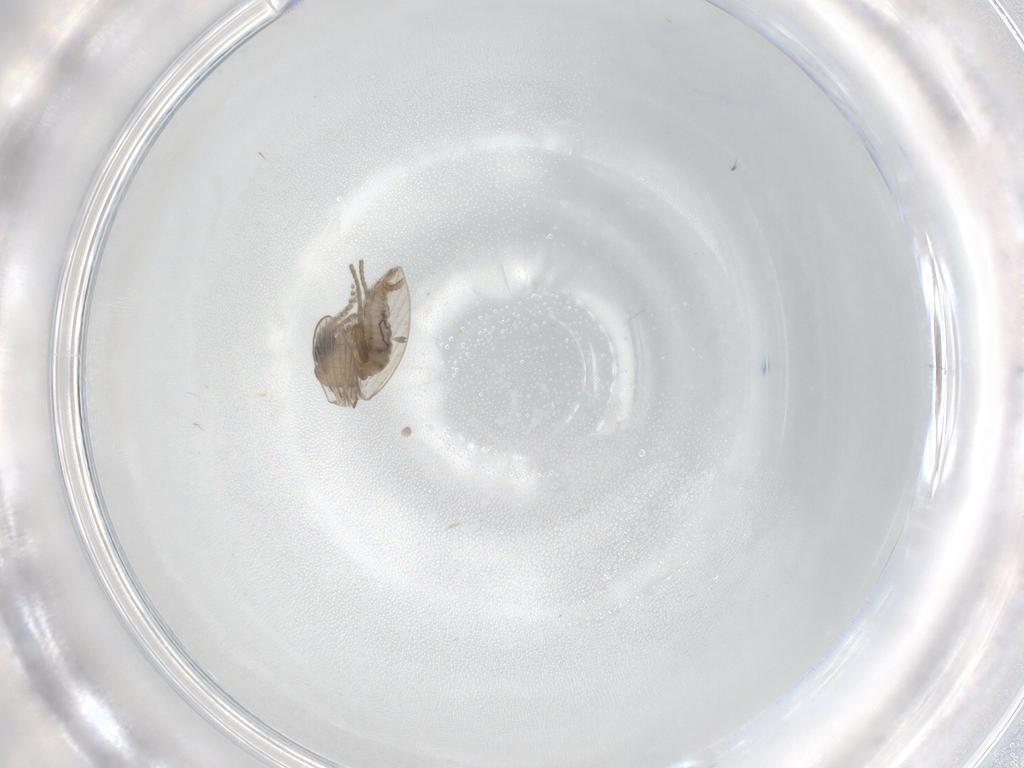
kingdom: Animalia
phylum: Arthropoda
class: Insecta
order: Diptera
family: Psychodidae
